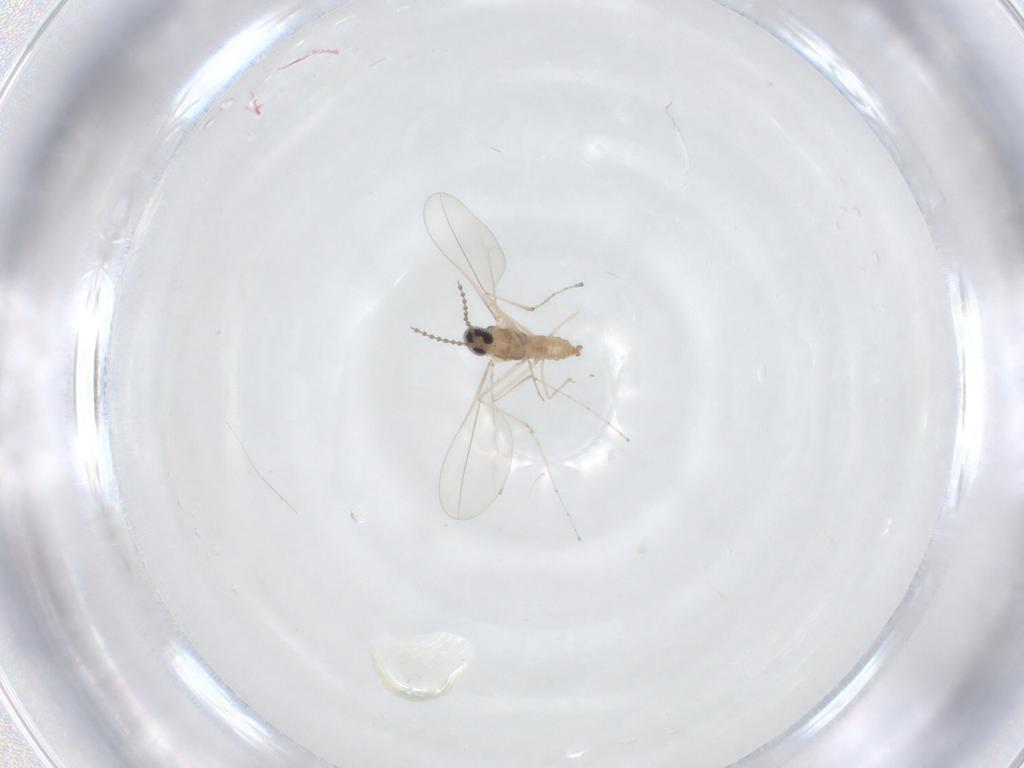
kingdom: Animalia
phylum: Arthropoda
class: Insecta
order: Diptera
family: Cecidomyiidae
